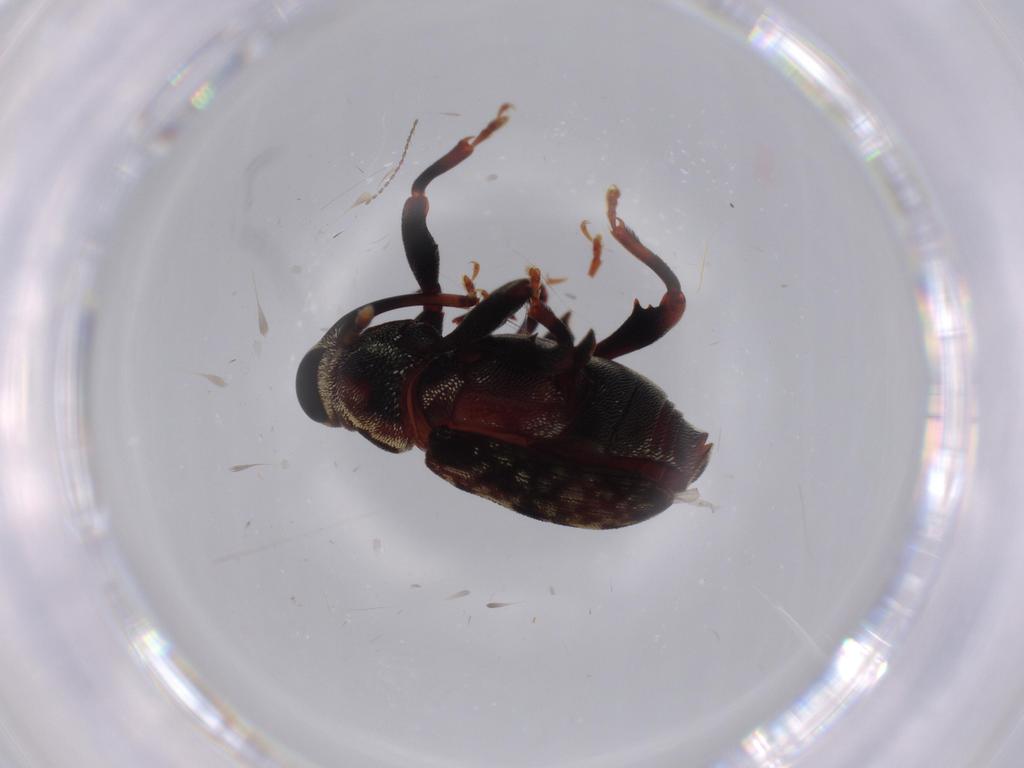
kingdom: Animalia
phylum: Arthropoda
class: Insecta
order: Coleoptera
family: Curculionidae
